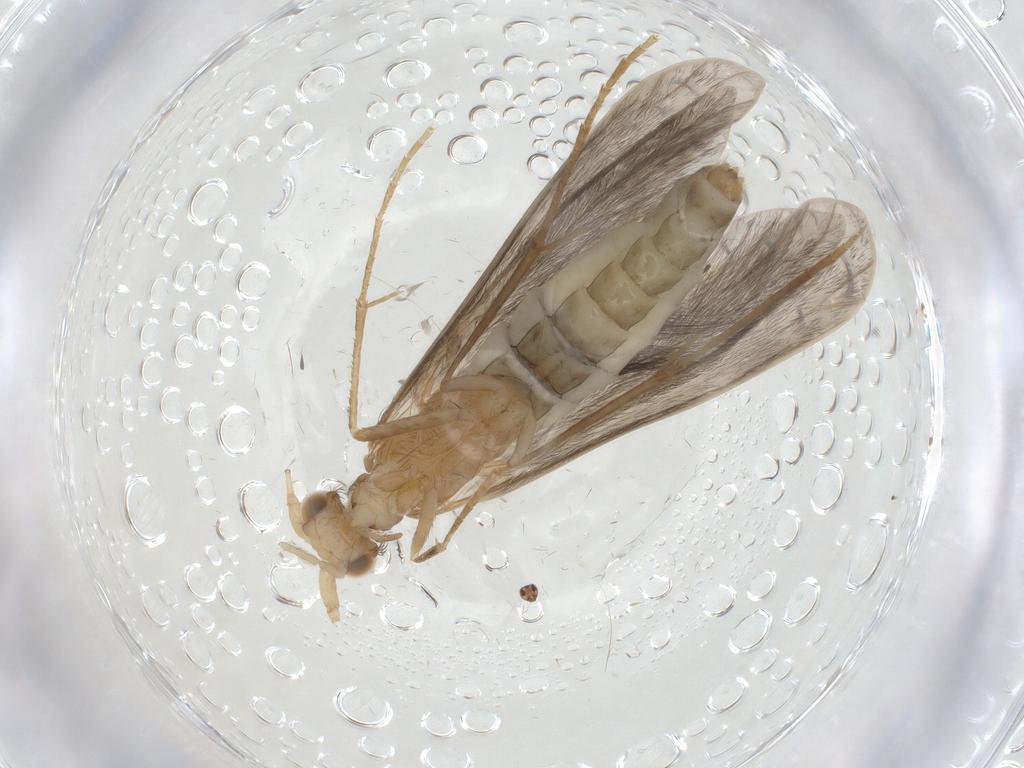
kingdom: Animalia
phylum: Arthropoda
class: Insecta
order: Trichoptera
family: Leptoceridae
